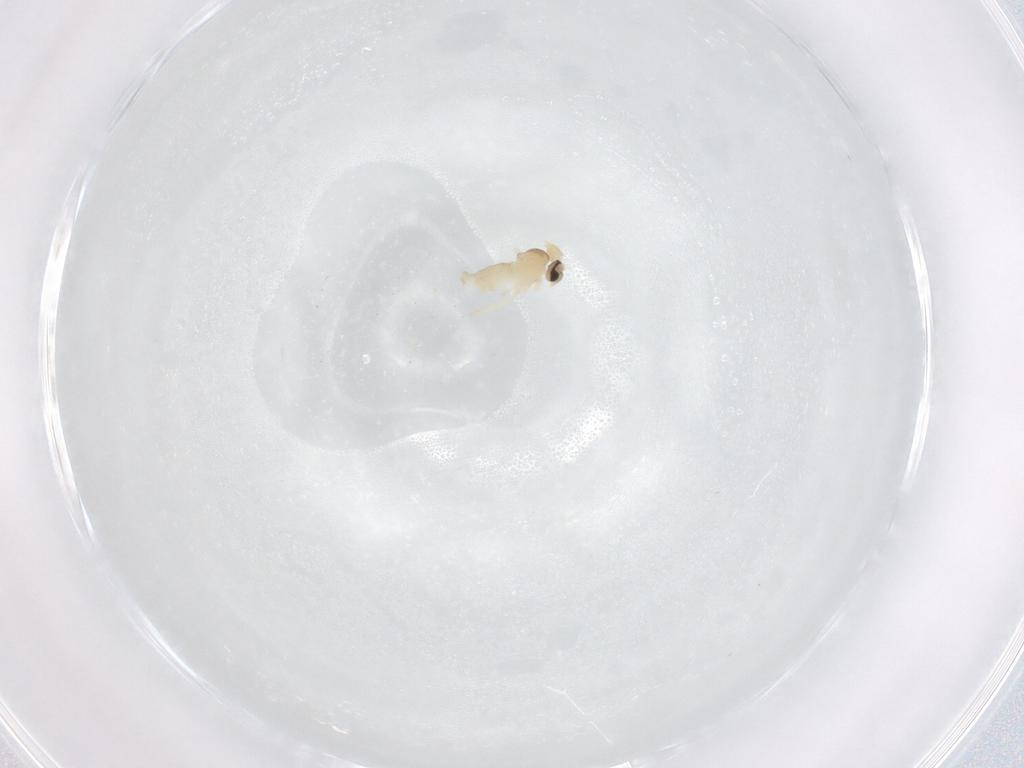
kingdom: Animalia
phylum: Arthropoda
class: Insecta
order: Diptera
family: Cecidomyiidae
